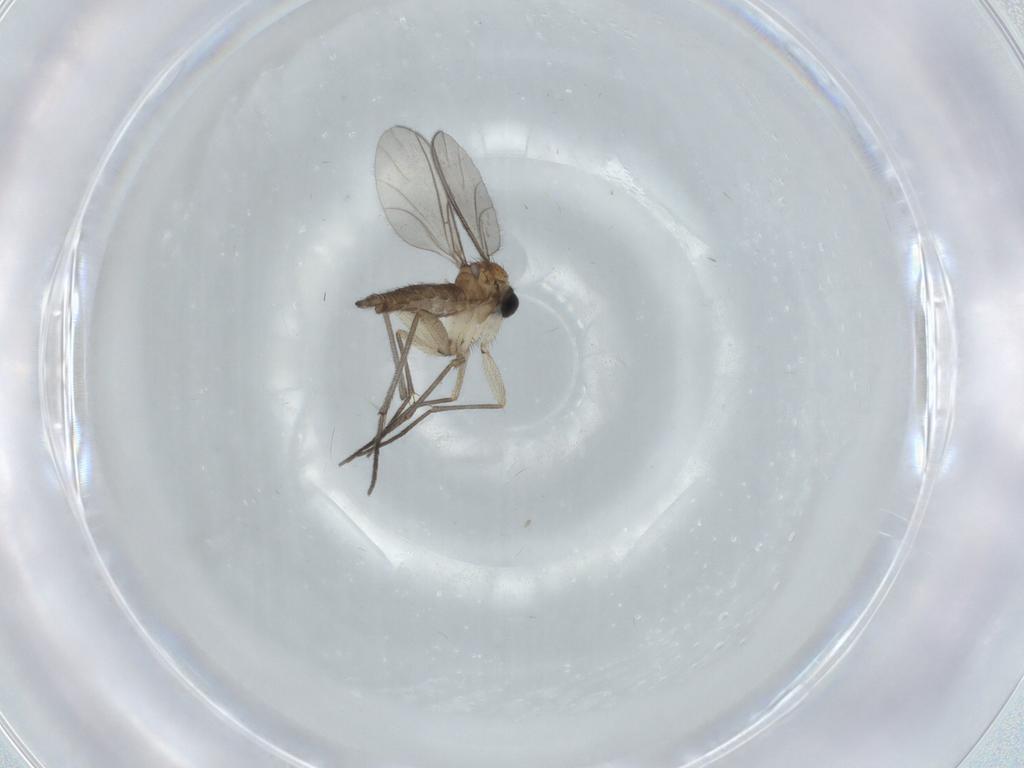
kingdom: Animalia
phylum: Arthropoda
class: Insecta
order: Diptera
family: Sciaridae
